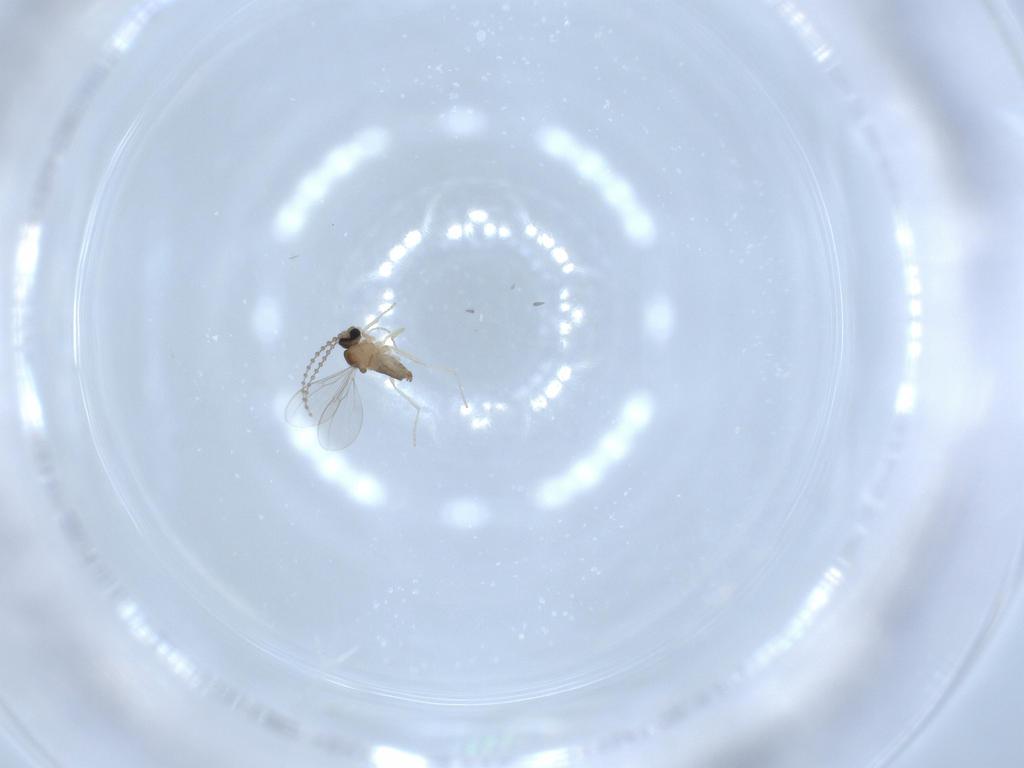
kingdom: Animalia
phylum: Arthropoda
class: Insecta
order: Diptera
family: Cecidomyiidae
